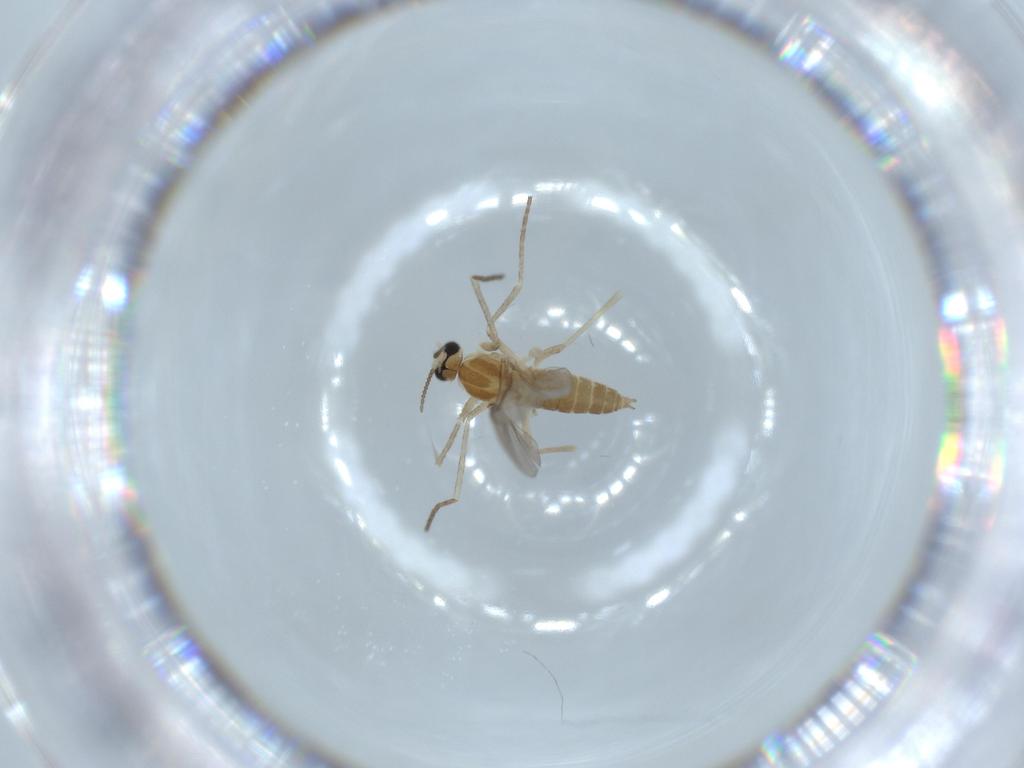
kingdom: Animalia
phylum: Arthropoda
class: Insecta
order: Diptera
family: Cecidomyiidae
